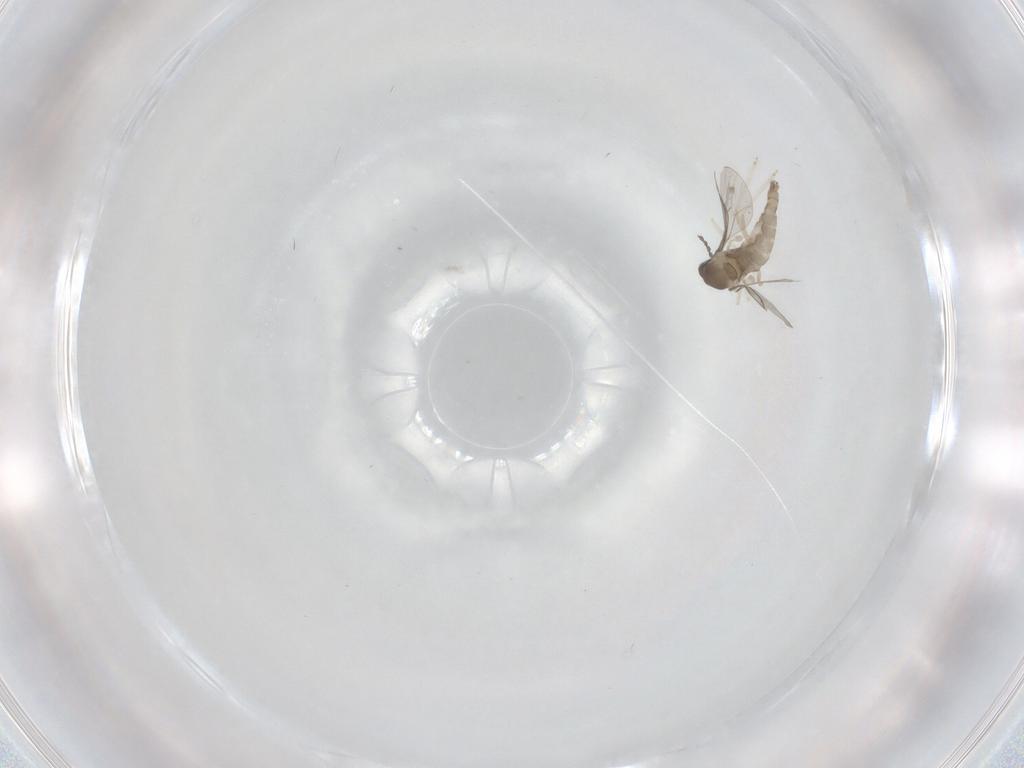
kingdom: Animalia
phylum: Arthropoda
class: Insecta
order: Diptera
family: Cecidomyiidae
